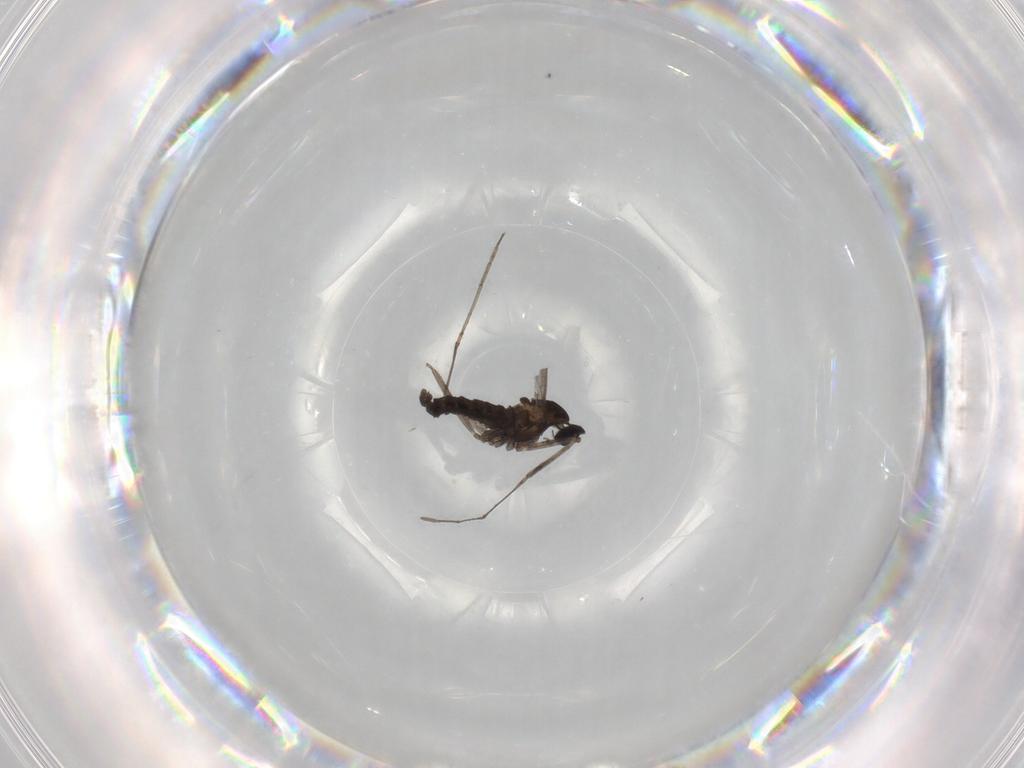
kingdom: Animalia
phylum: Arthropoda
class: Insecta
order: Diptera
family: Cecidomyiidae
